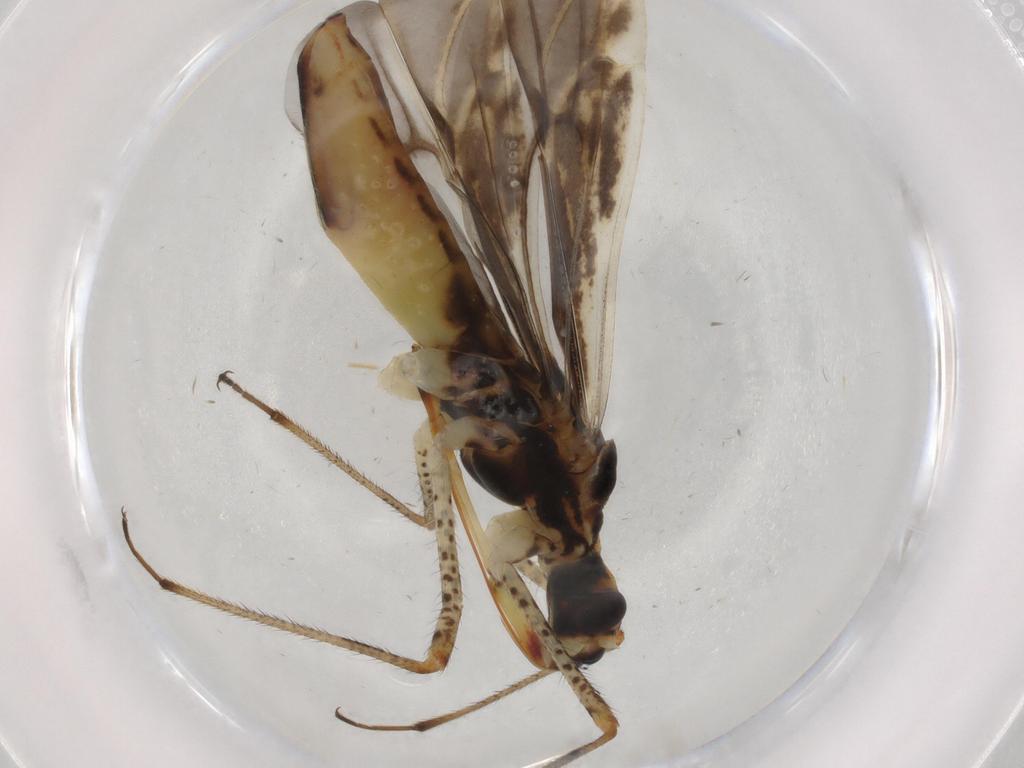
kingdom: Animalia
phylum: Arthropoda
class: Insecta
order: Hemiptera
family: Miridae
